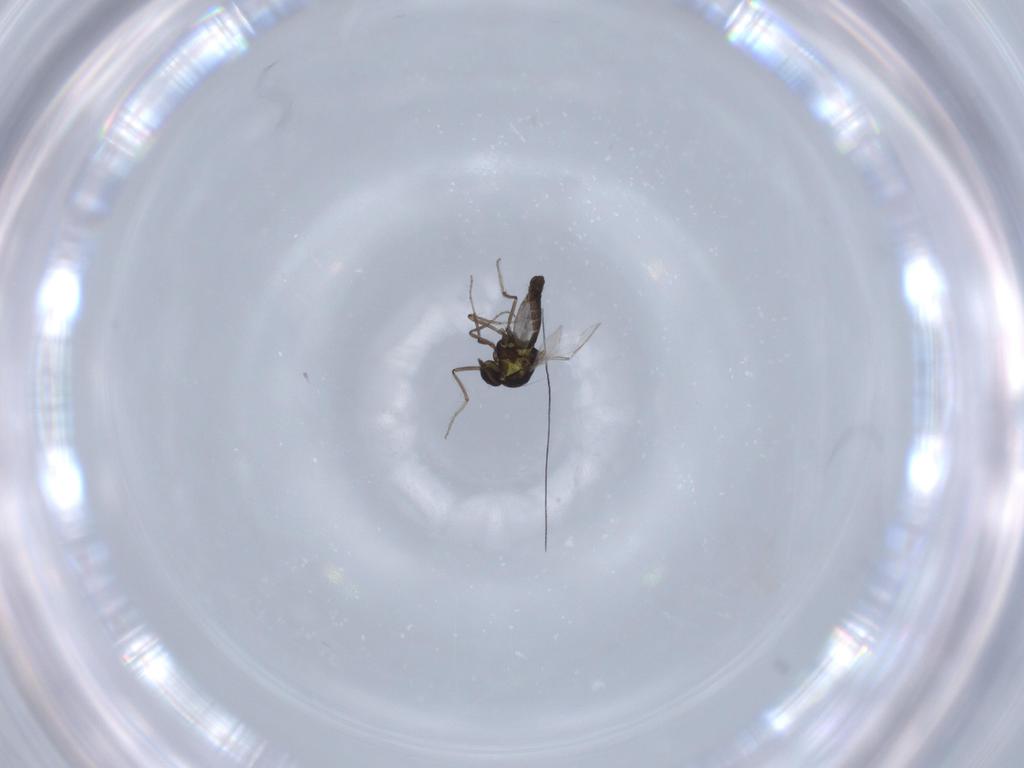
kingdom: Animalia
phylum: Arthropoda
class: Insecta
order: Diptera
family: Ceratopogonidae
